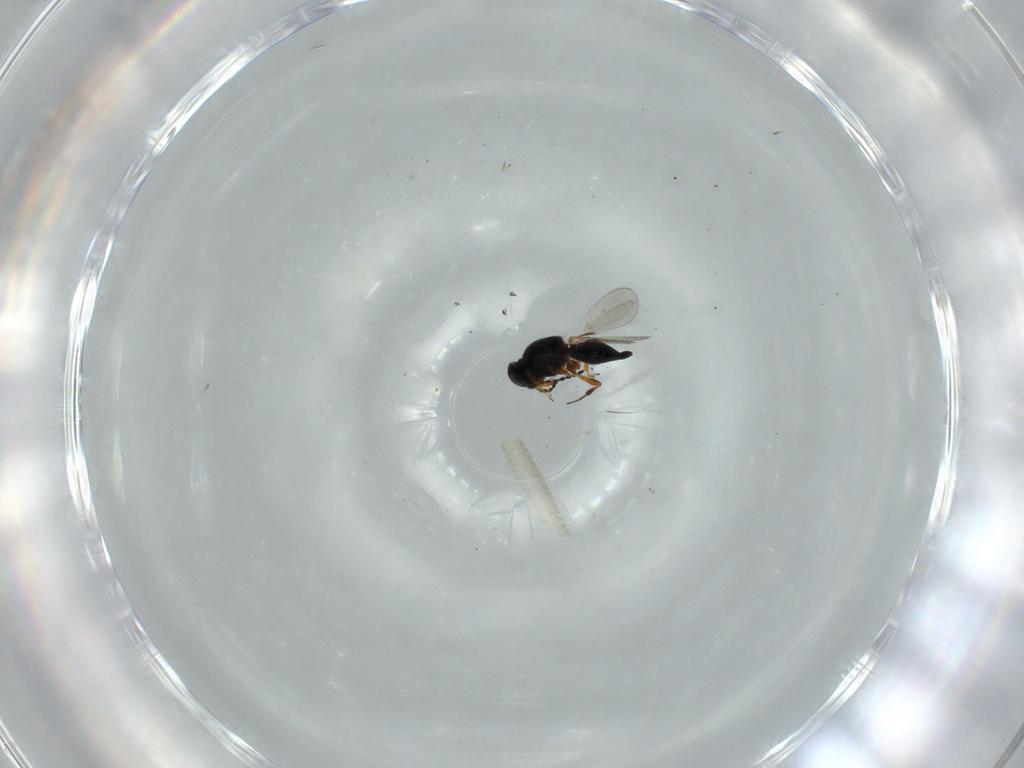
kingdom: Animalia
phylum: Arthropoda
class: Insecta
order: Hymenoptera
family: Platygastridae
